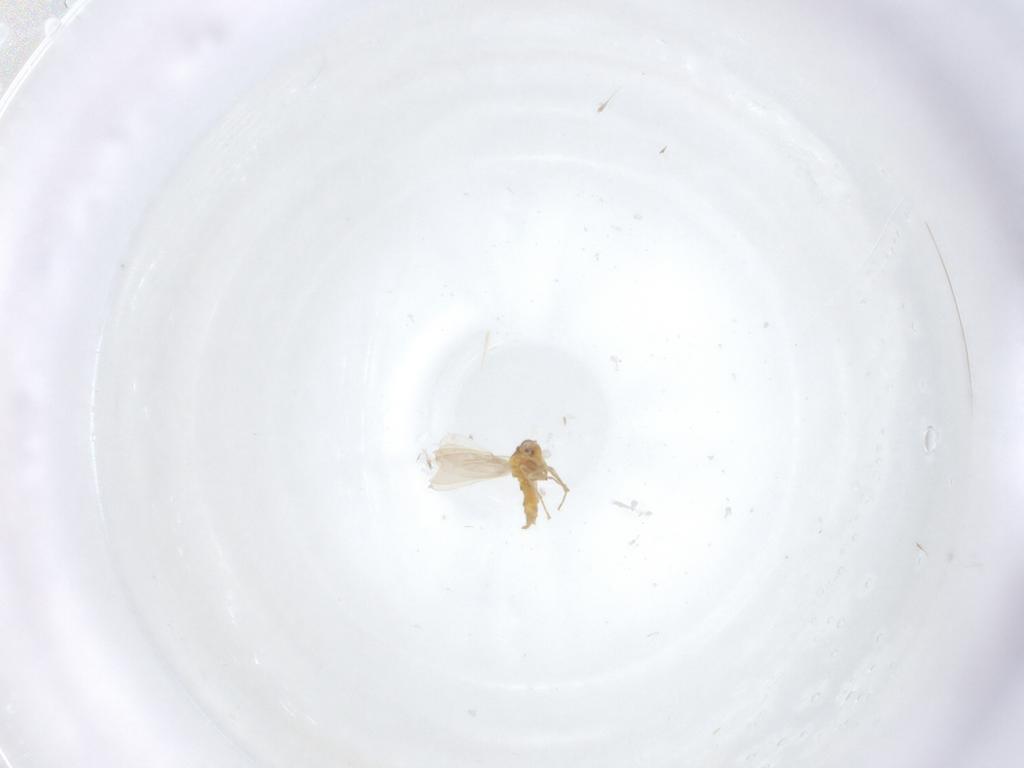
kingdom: Animalia
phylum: Arthropoda
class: Insecta
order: Hemiptera
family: Aleyrodidae
